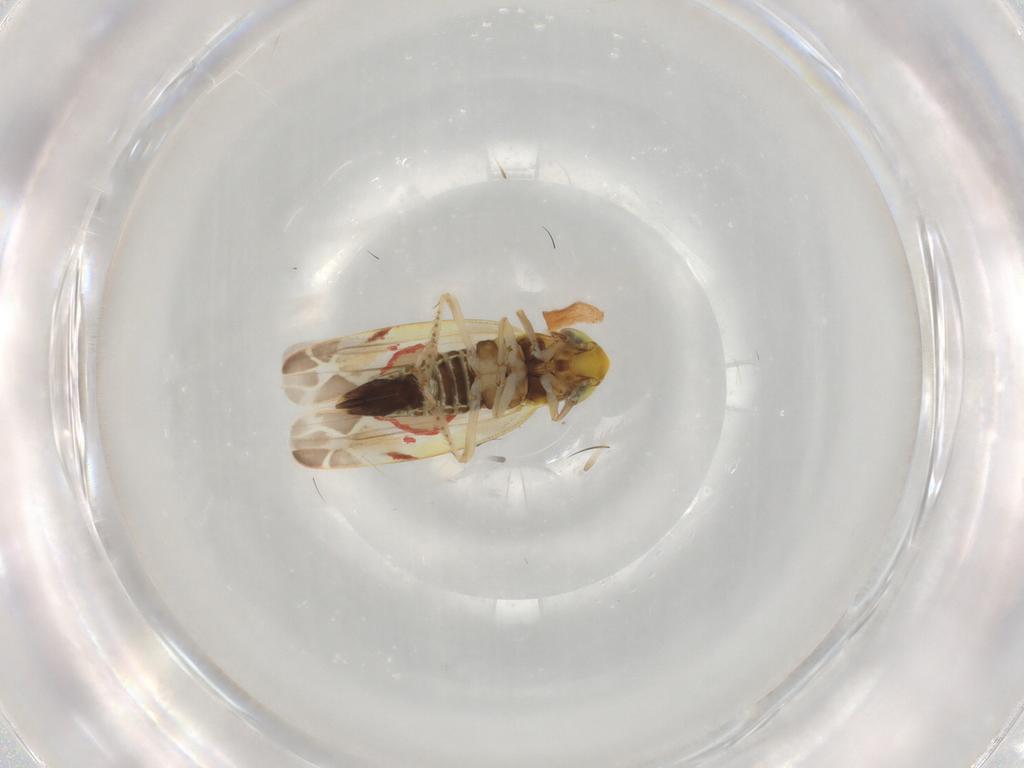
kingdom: Animalia
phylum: Arthropoda
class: Insecta
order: Hemiptera
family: Cicadellidae
